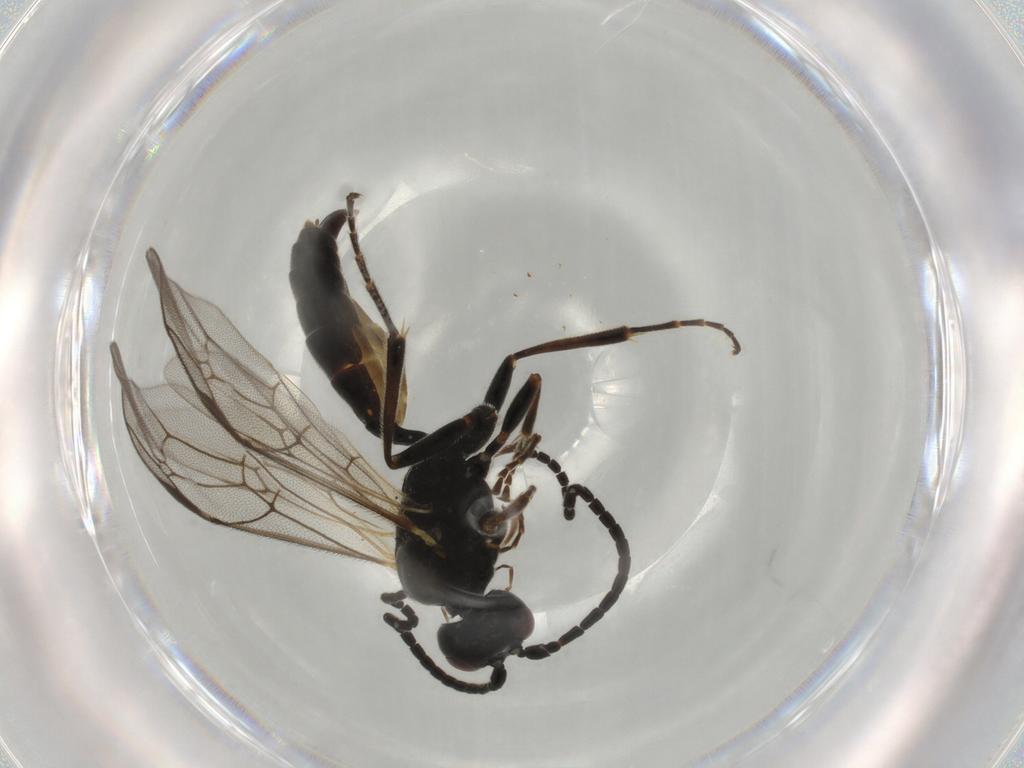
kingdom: Animalia
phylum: Arthropoda
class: Insecta
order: Hymenoptera
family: Ichneumonidae
